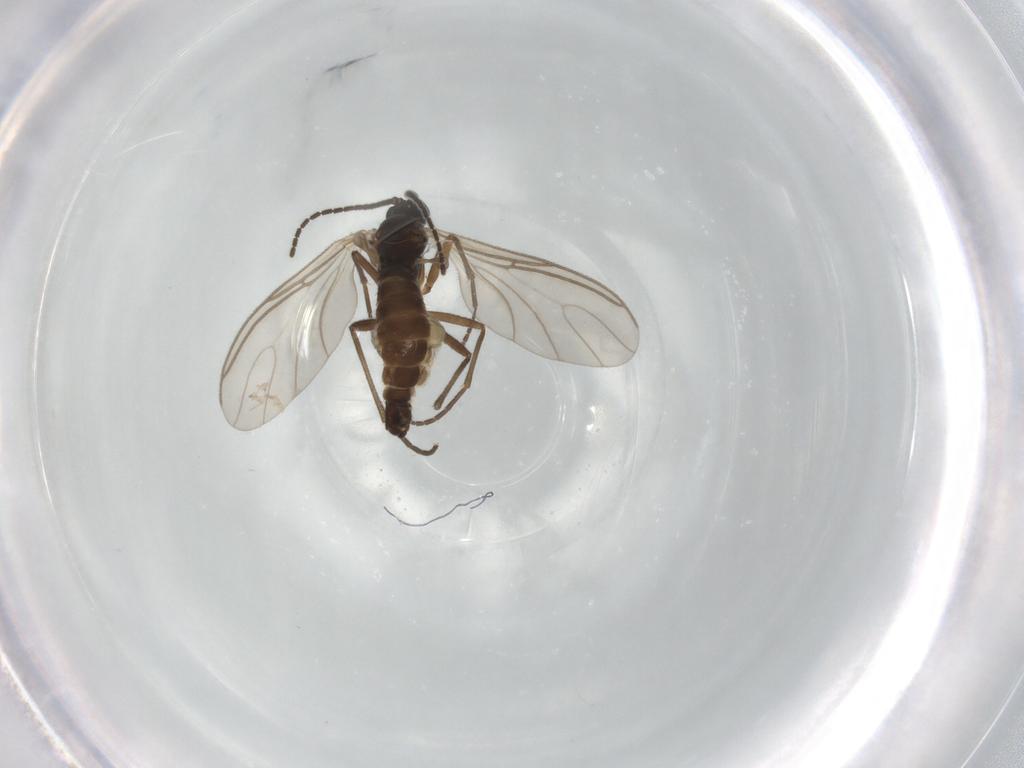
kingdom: Animalia
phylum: Arthropoda
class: Insecta
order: Diptera
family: Sciaridae
